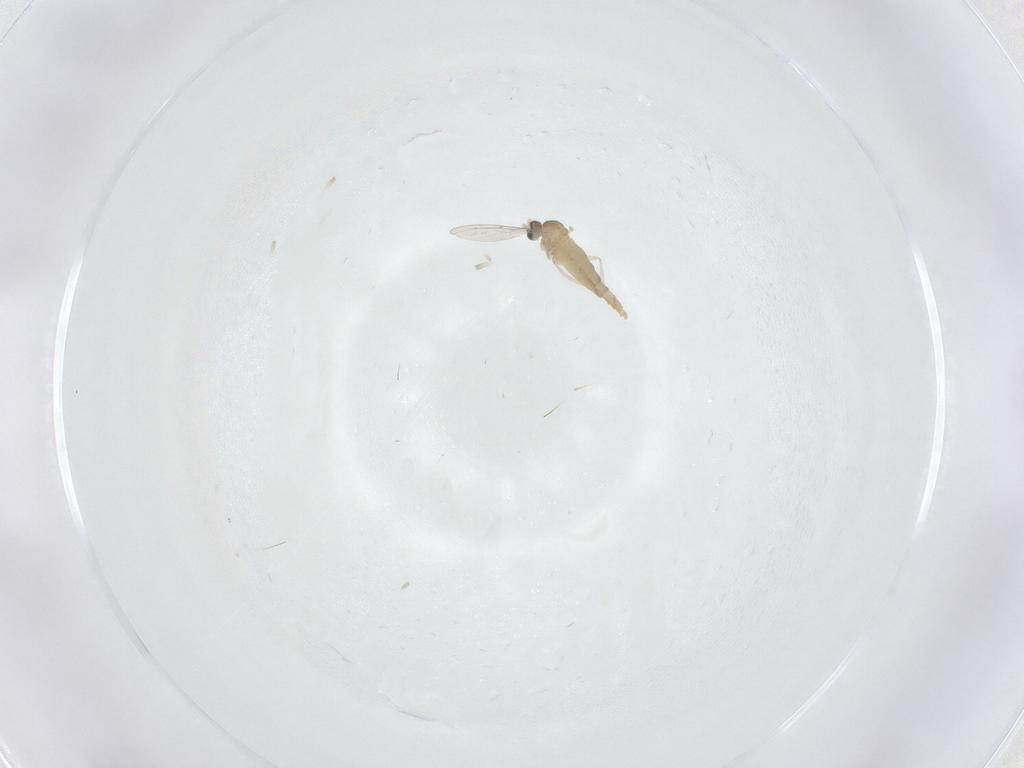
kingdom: Animalia
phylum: Arthropoda
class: Insecta
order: Diptera
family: Cecidomyiidae
